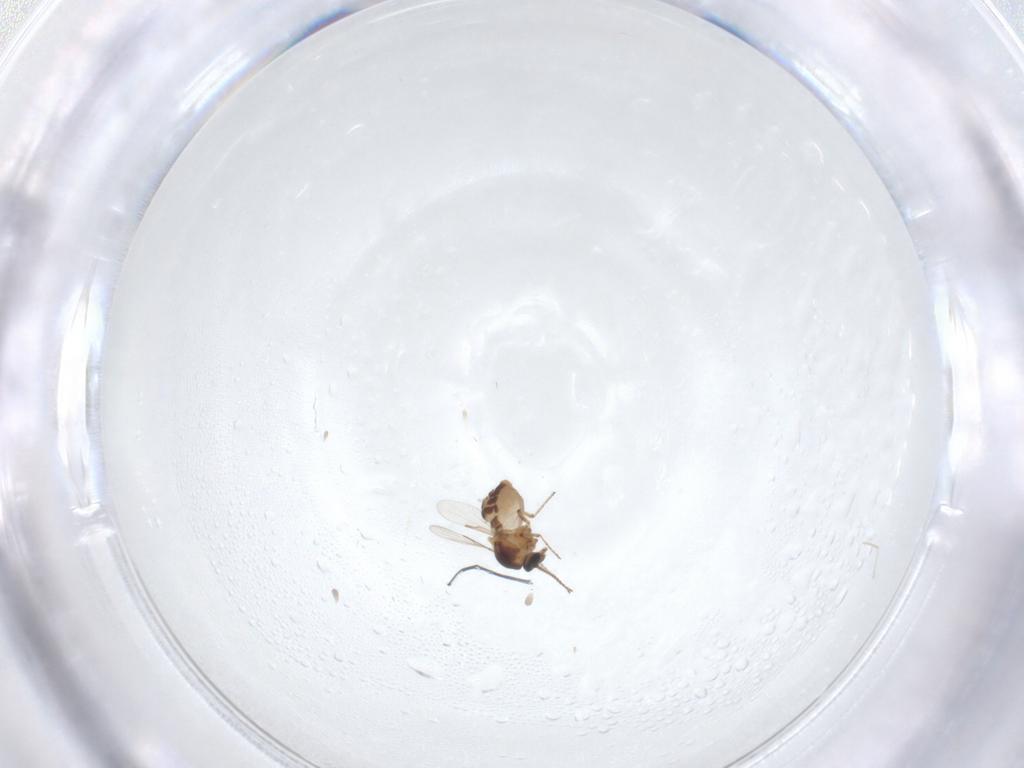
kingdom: Animalia
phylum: Arthropoda
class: Insecta
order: Diptera
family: Ceratopogonidae
